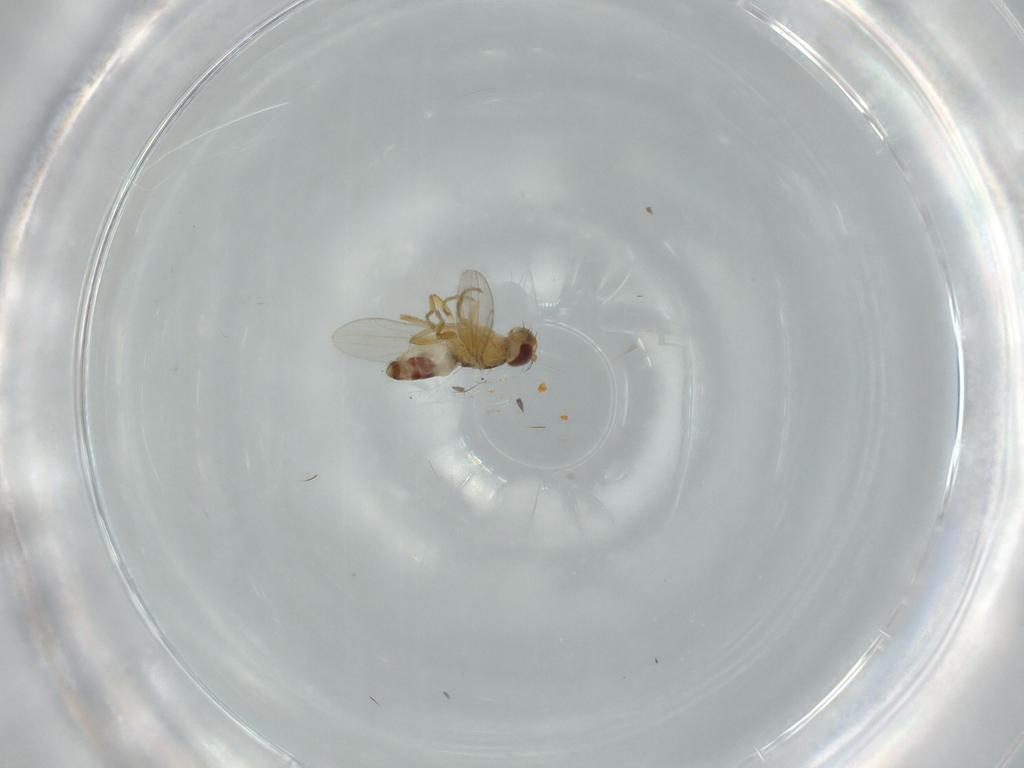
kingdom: Animalia
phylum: Arthropoda
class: Insecta
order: Diptera
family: Periscelididae
